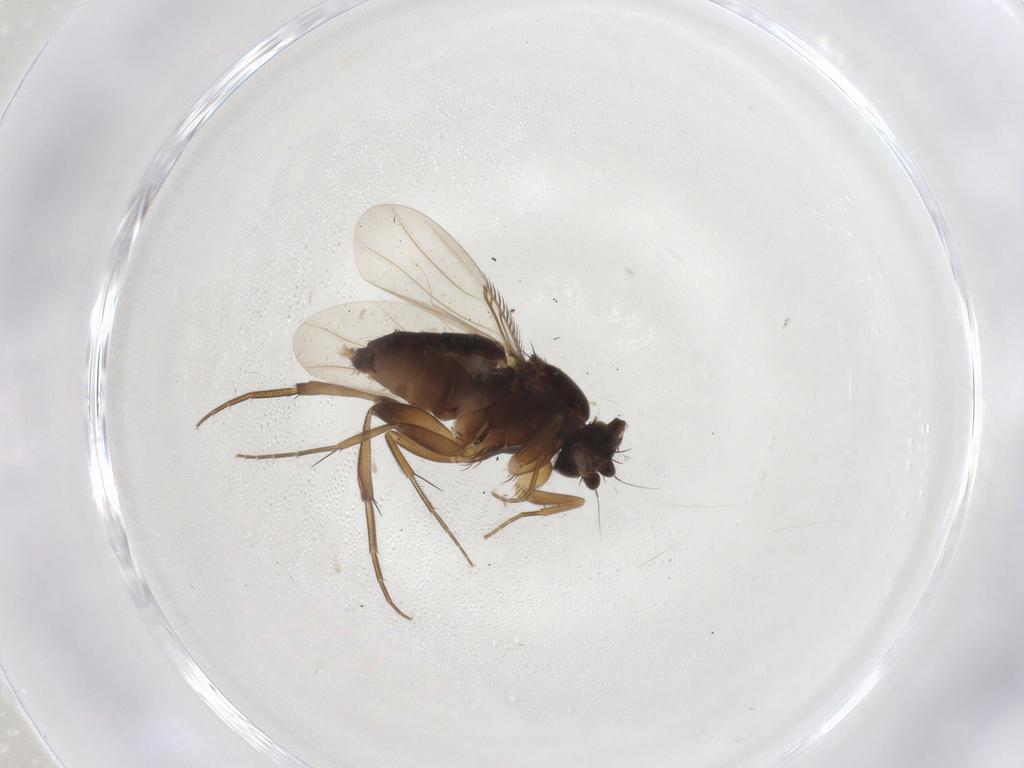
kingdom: Animalia
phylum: Arthropoda
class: Insecta
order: Diptera
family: Phoridae
